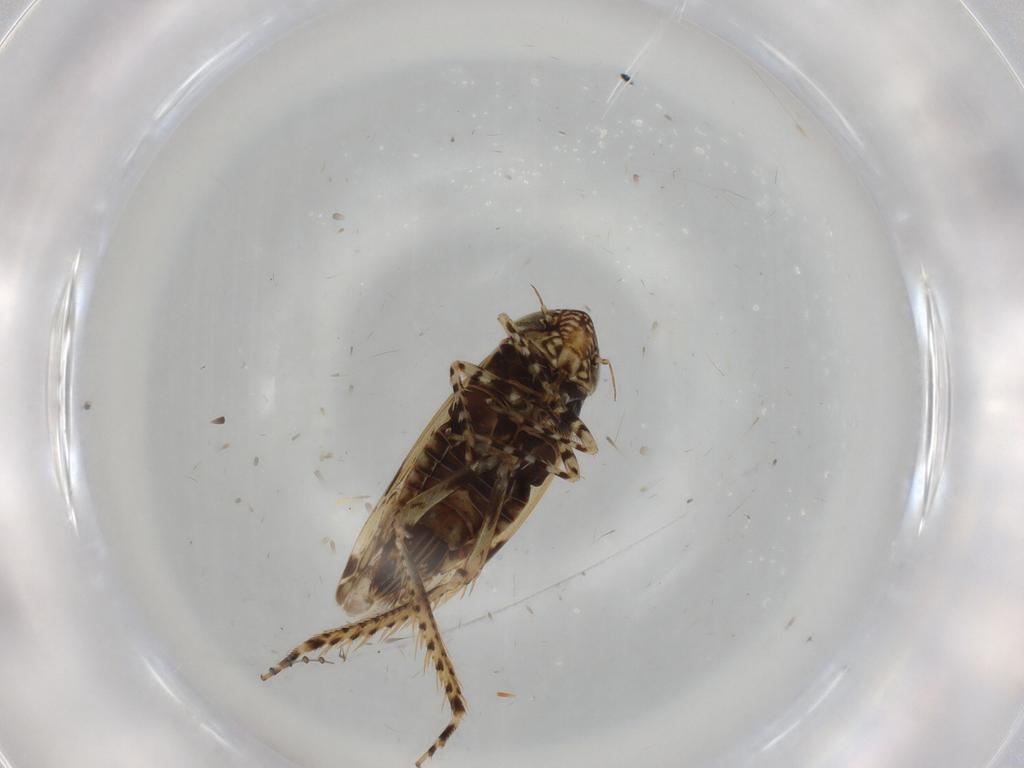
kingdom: Animalia
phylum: Arthropoda
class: Insecta
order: Hemiptera
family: Cicadellidae
